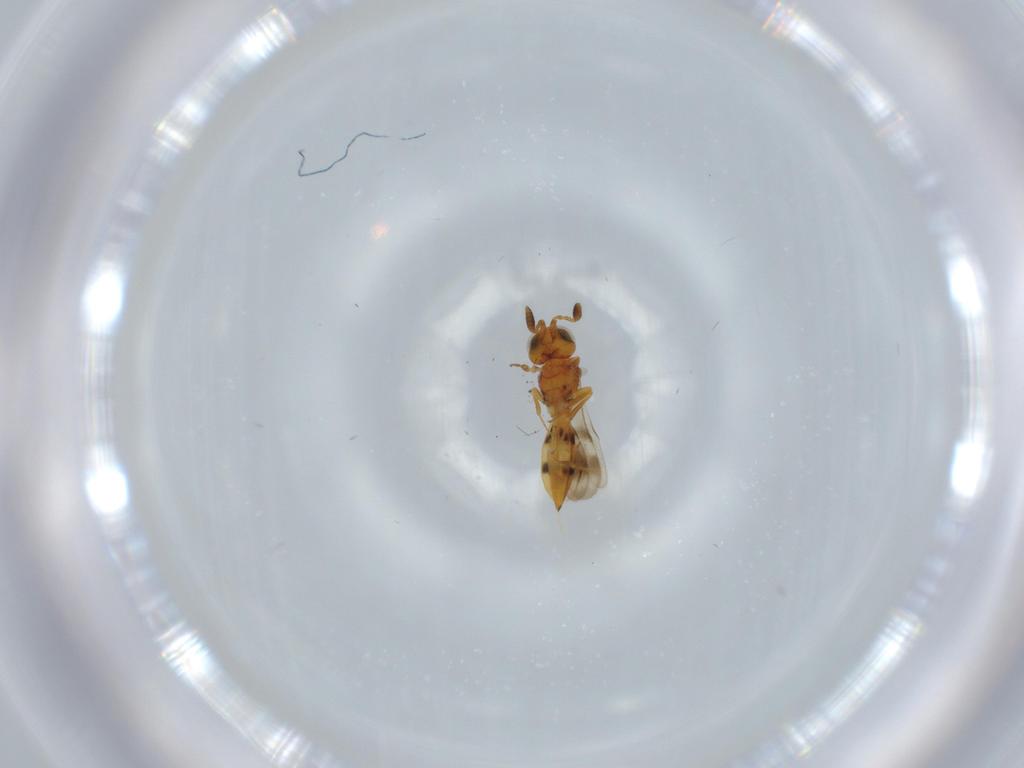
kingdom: Animalia
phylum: Arthropoda
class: Insecta
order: Hymenoptera
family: Scelionidae
